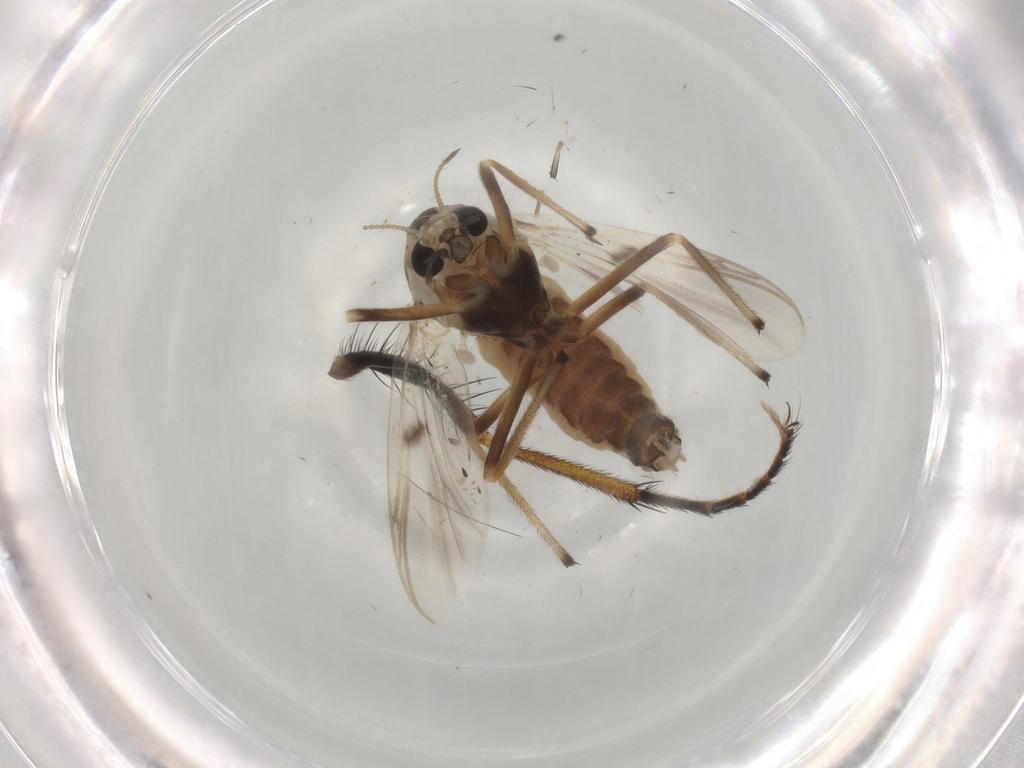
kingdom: Animalia
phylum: Arthropoda
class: Insecta
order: Diptera
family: Chironomidae
